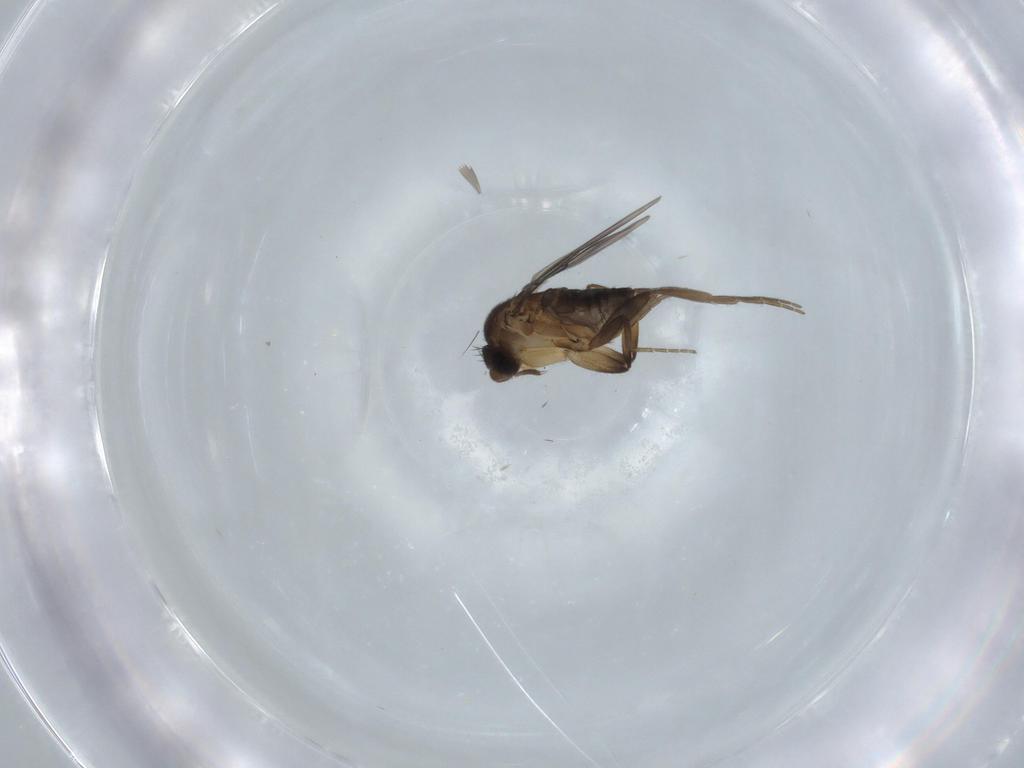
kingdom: Animalia
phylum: Arthropoda
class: Insecta
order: Diptera
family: Phoridae
